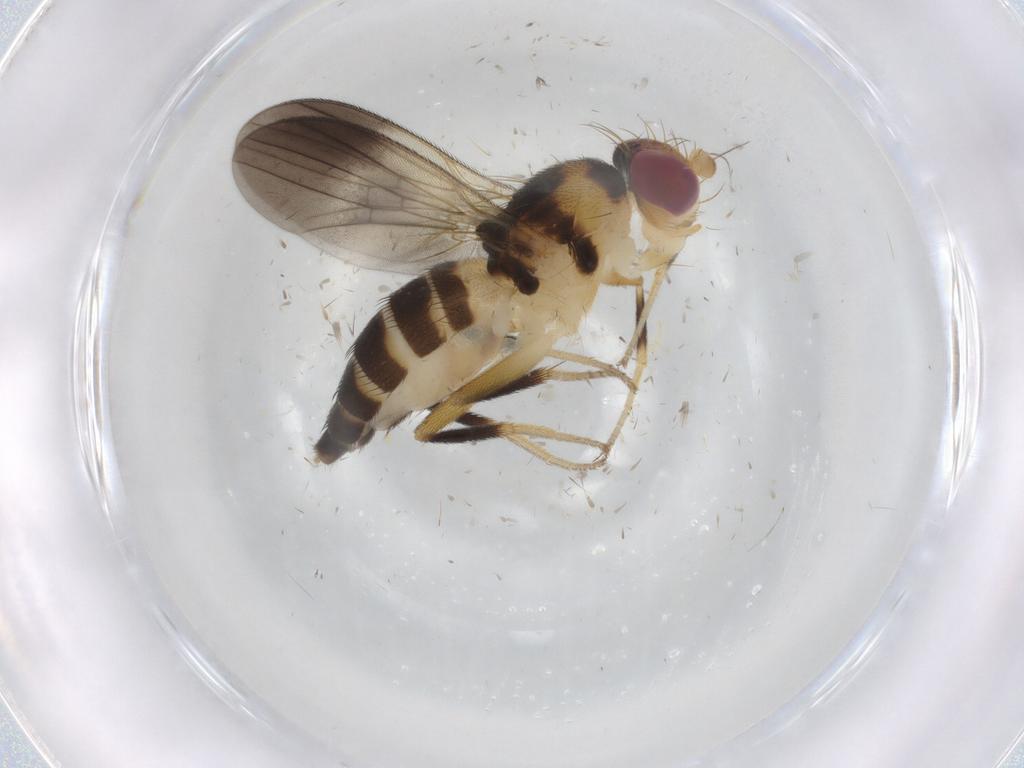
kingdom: Animalia
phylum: Arthropoda
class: Insecta
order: Diptera
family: Clusiidae
